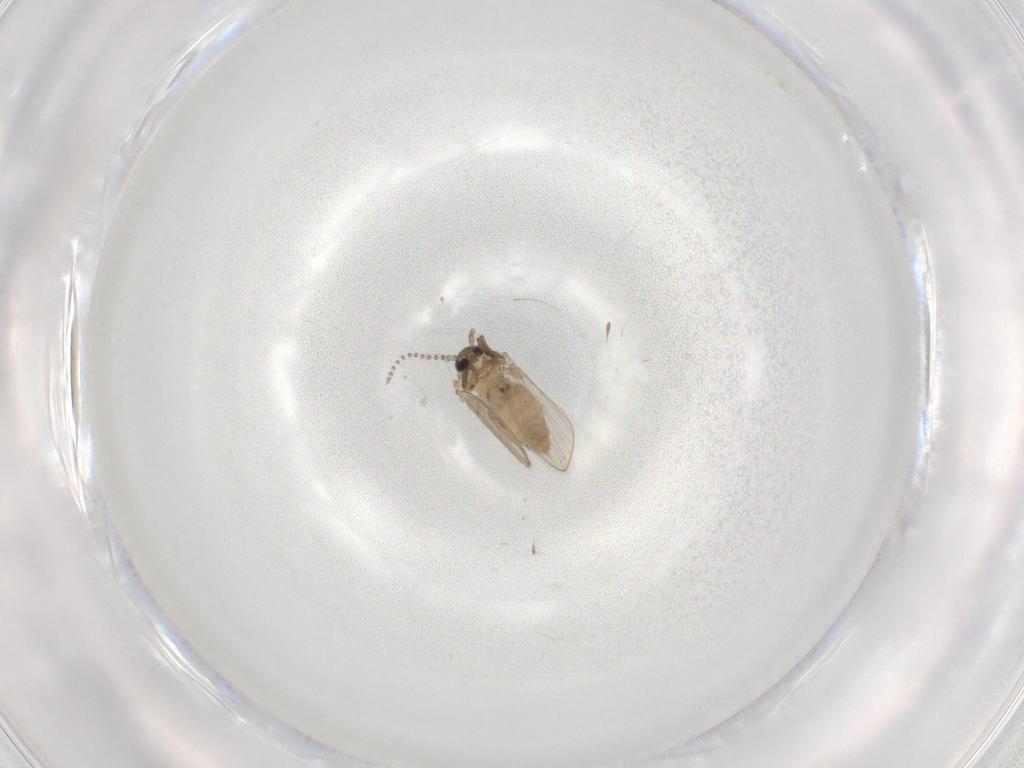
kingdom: Animalia
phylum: Arthropoda
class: Insecta
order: Diptera
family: Psychodidae
